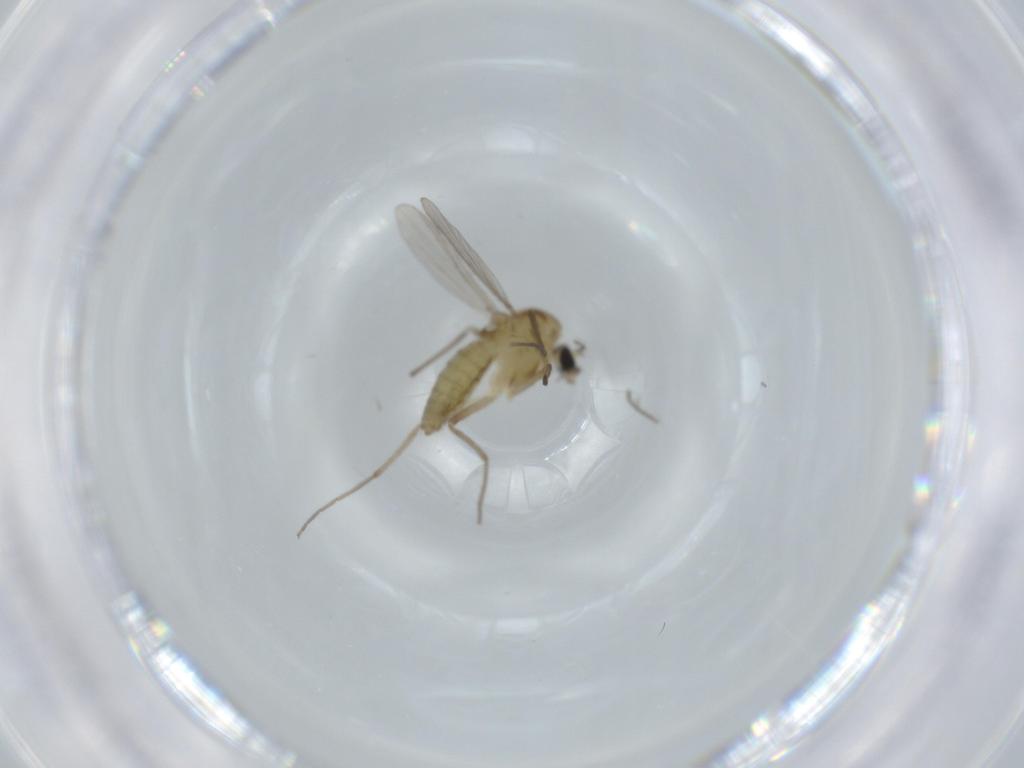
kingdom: Animalia
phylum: Arthropoda
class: Insecta
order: Diptera
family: Chironomidae
